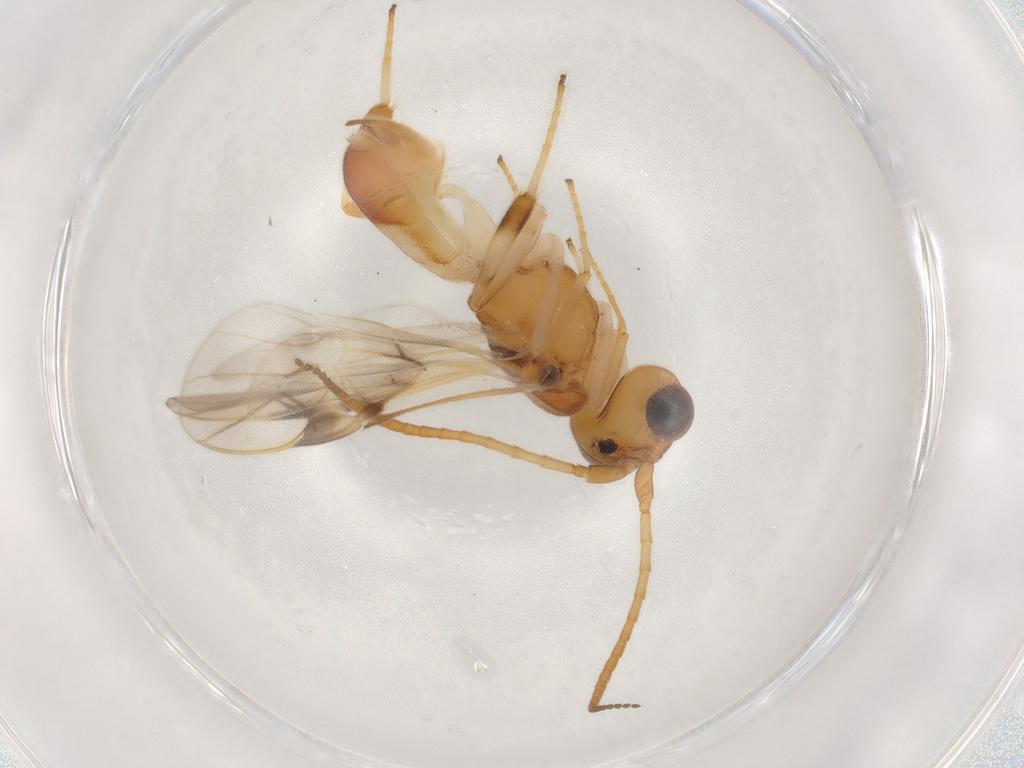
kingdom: Animalia
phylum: Arthropoda
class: Insecta
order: Hymenoptera
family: Braconidae
